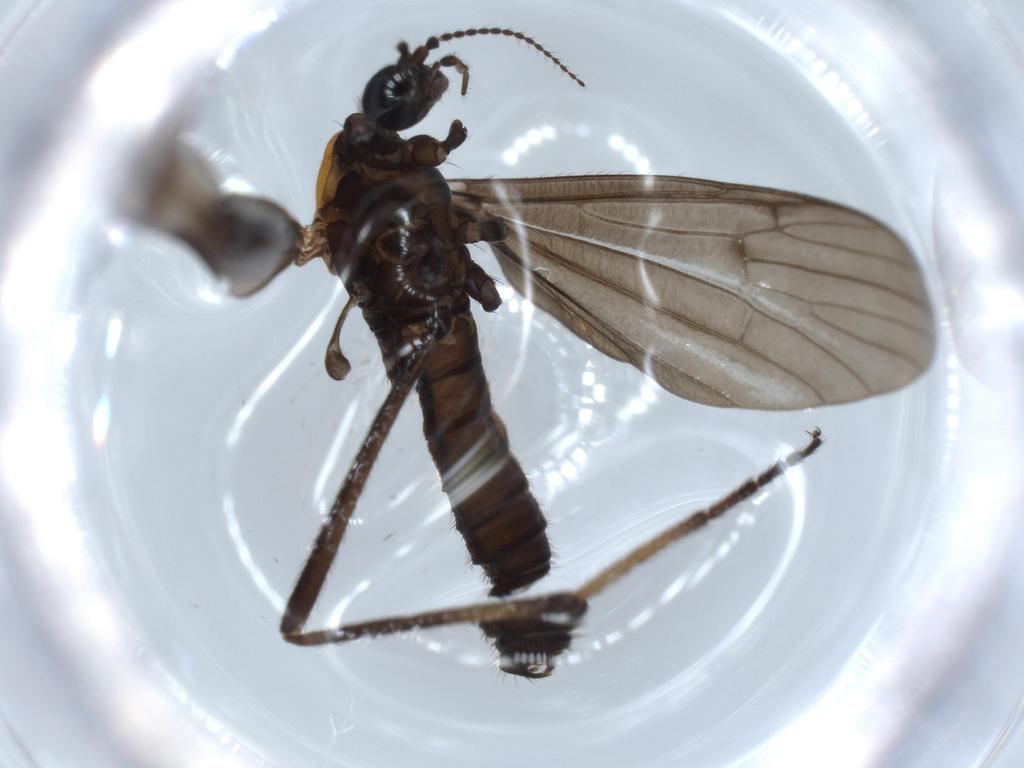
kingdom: Animalia
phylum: Arthropoda
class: Insecta
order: Diptera
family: Limoniidae
